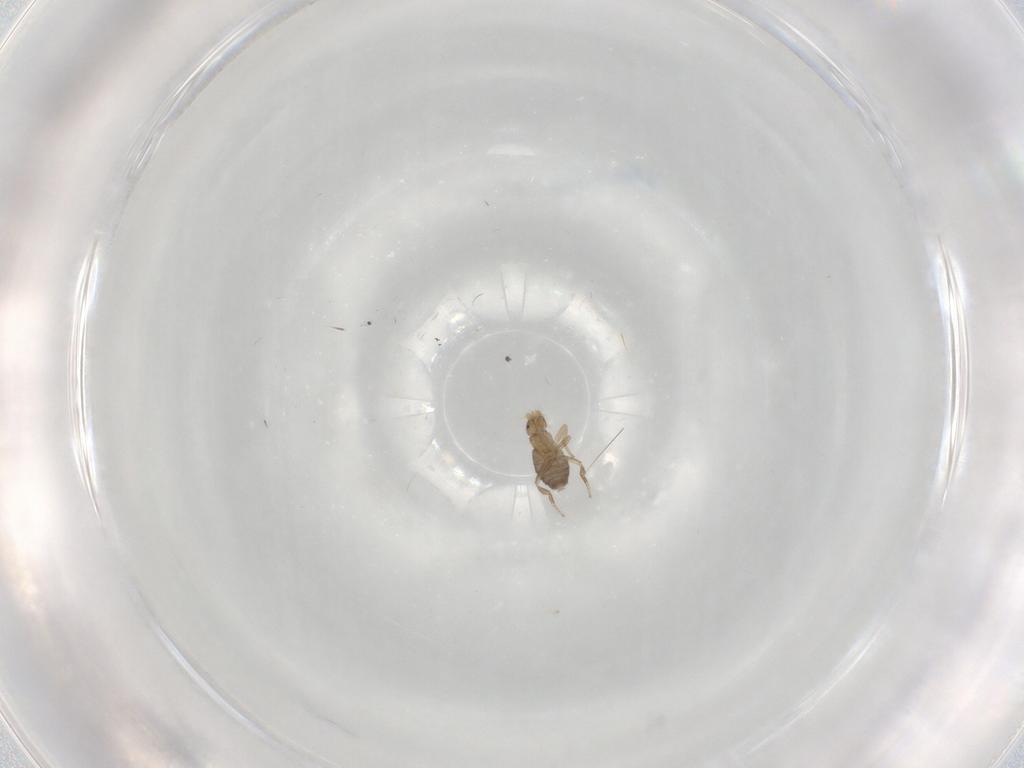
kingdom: Animalia
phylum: Arthropoda
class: Insecta
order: Diptera
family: Phoridae
